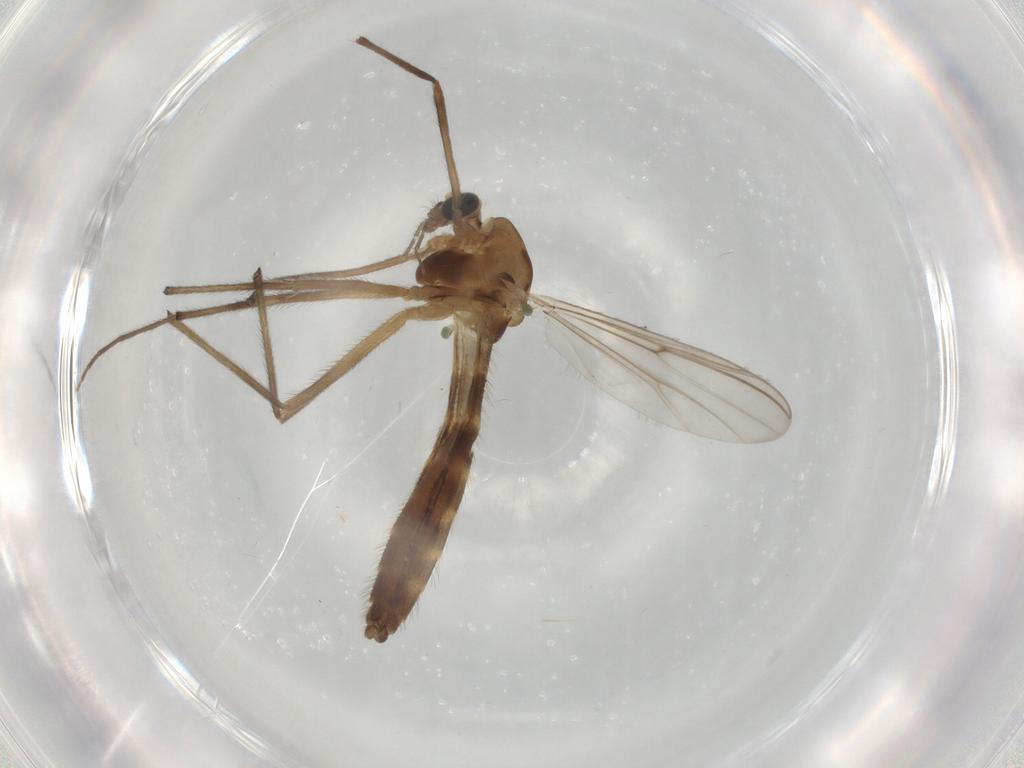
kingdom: Animalia
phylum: Arthropoda
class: Insecta
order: Diptera
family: Chironomidae
